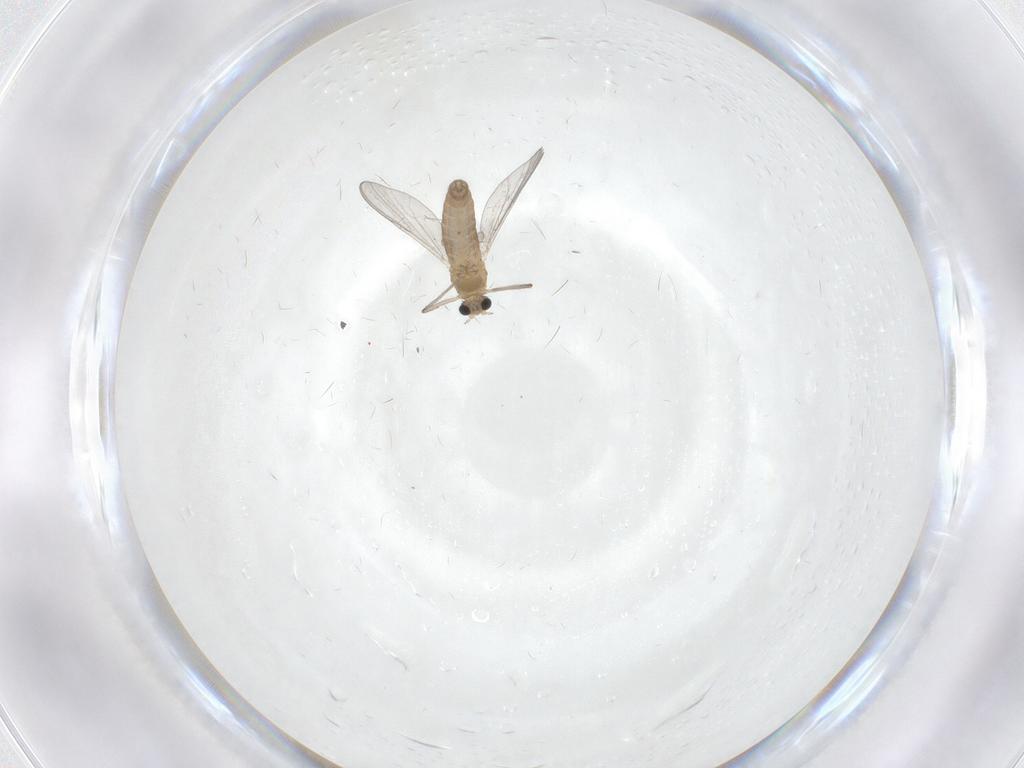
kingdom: Animalia
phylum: Arthropoda
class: Insecta
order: Diptera
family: Chironomidae
